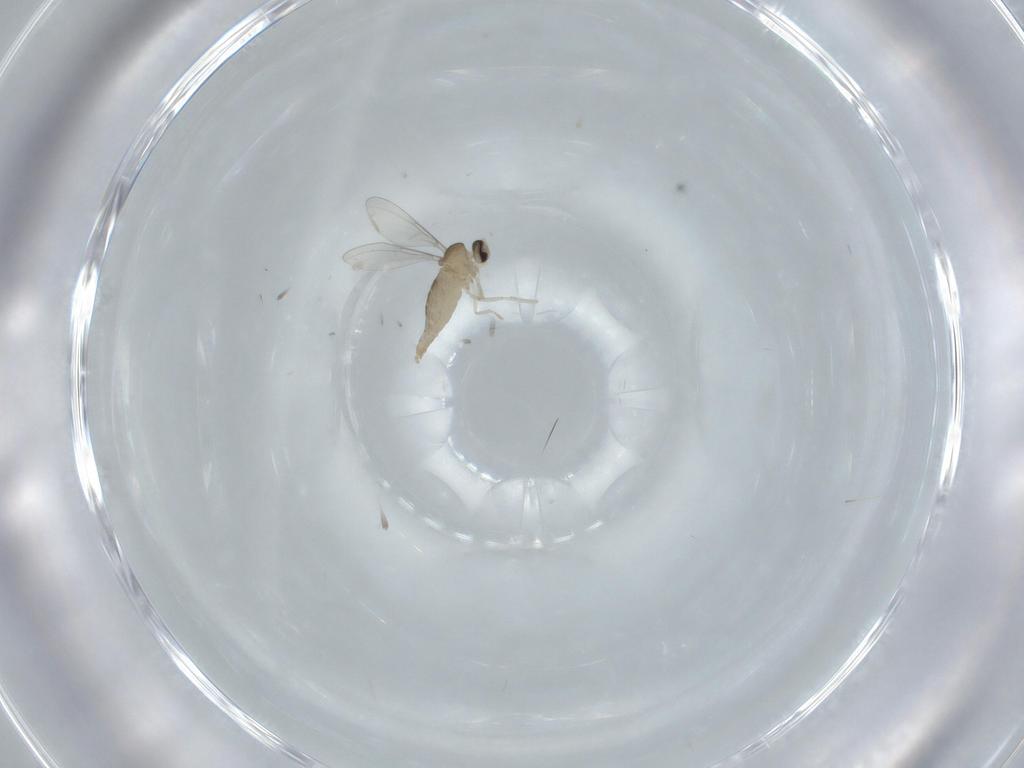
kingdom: Animalia
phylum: Arthropoda
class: Insecta
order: Diptera
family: Chironomidae
